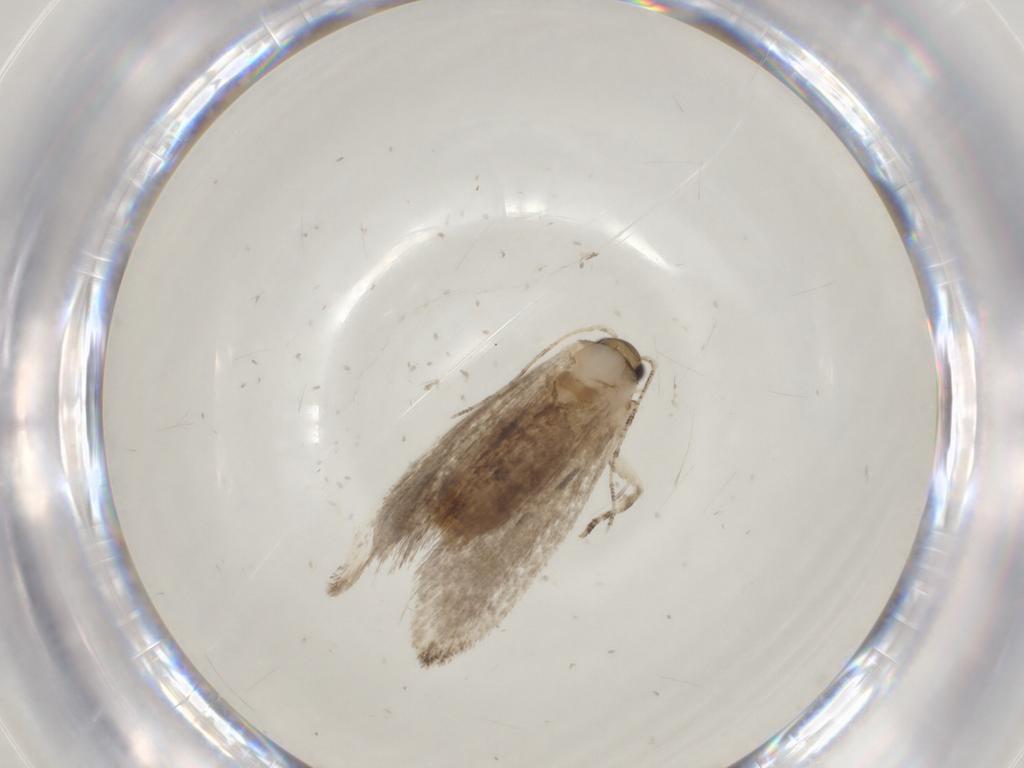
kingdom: Animalia
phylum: Arthropoda
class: Insecta
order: Lepidoptera
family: Tineidae
